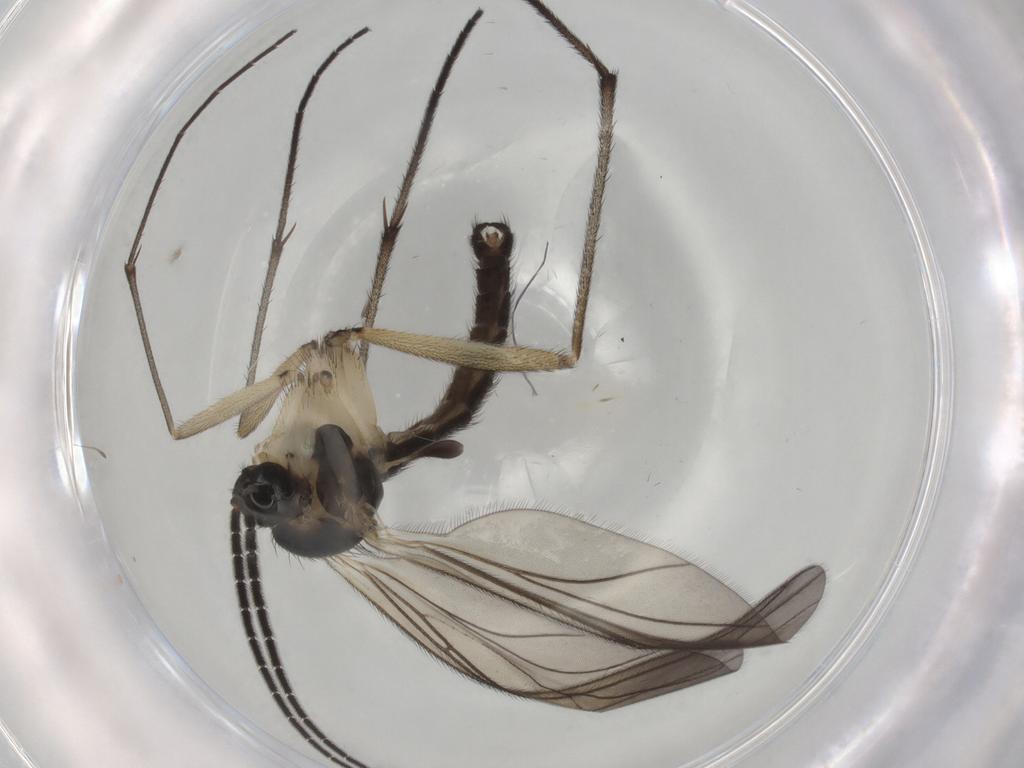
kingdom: Animalia
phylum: Arthropoda
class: Insecta
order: Diptera
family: Sciaridae
